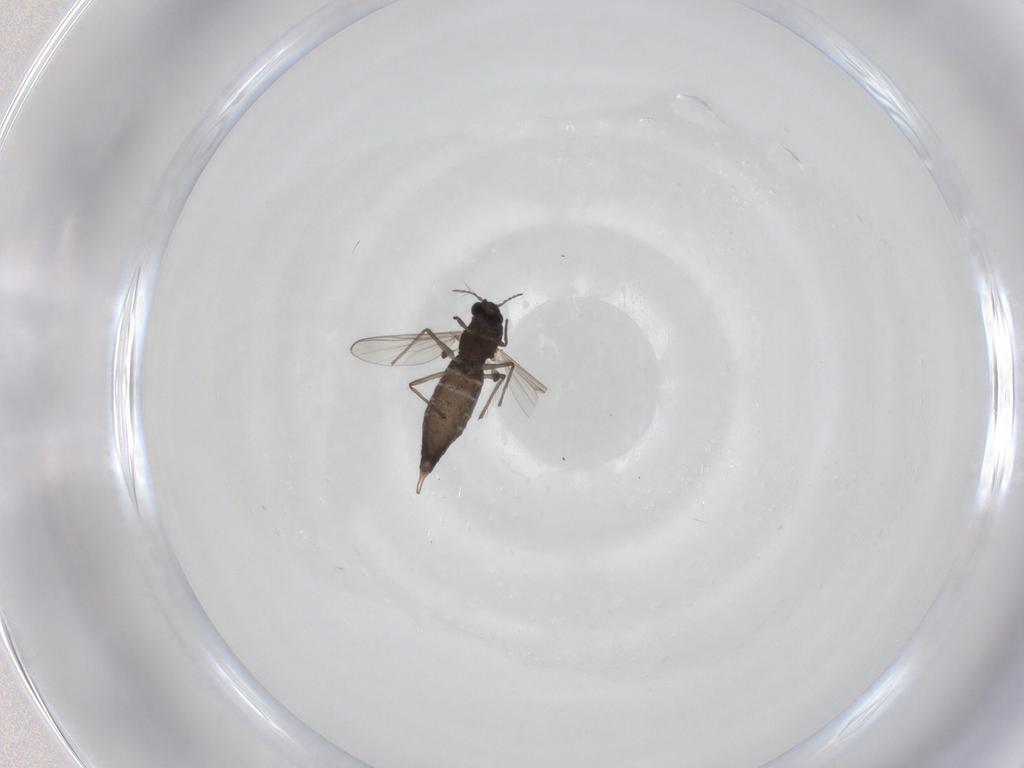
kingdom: Animalia
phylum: Arthropoda
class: Insecta
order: Diptera
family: Chironomidae
